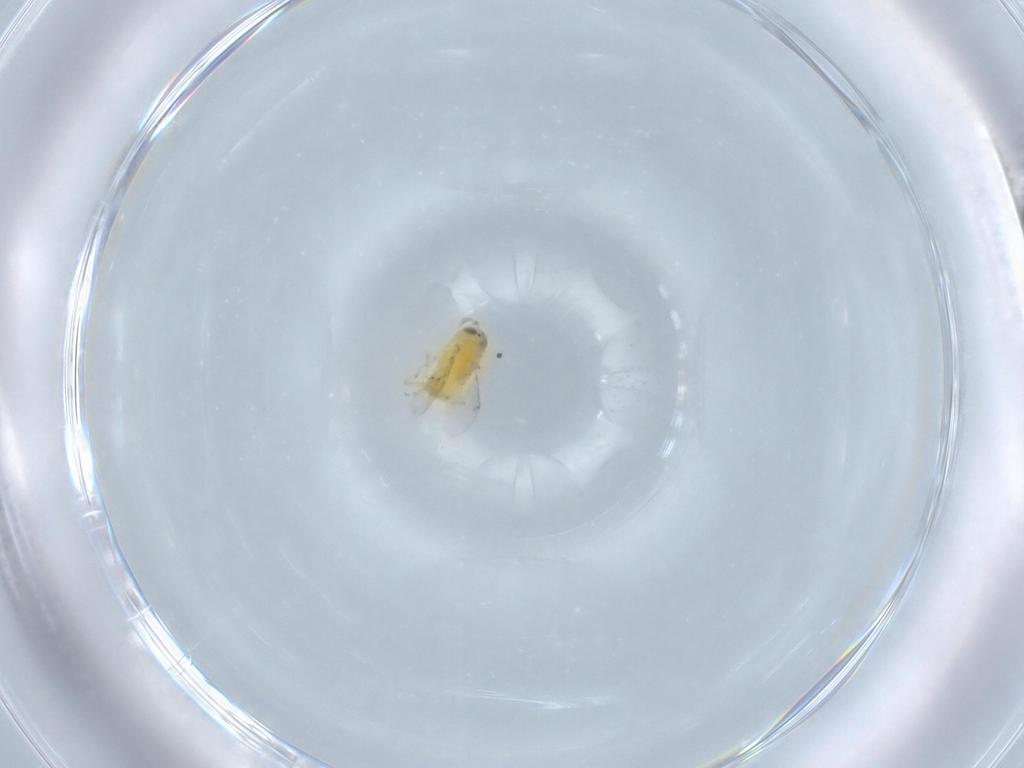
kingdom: Animalia
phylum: Arthropoda
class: Insecta
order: Hymenoptera
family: Encyrtidae
